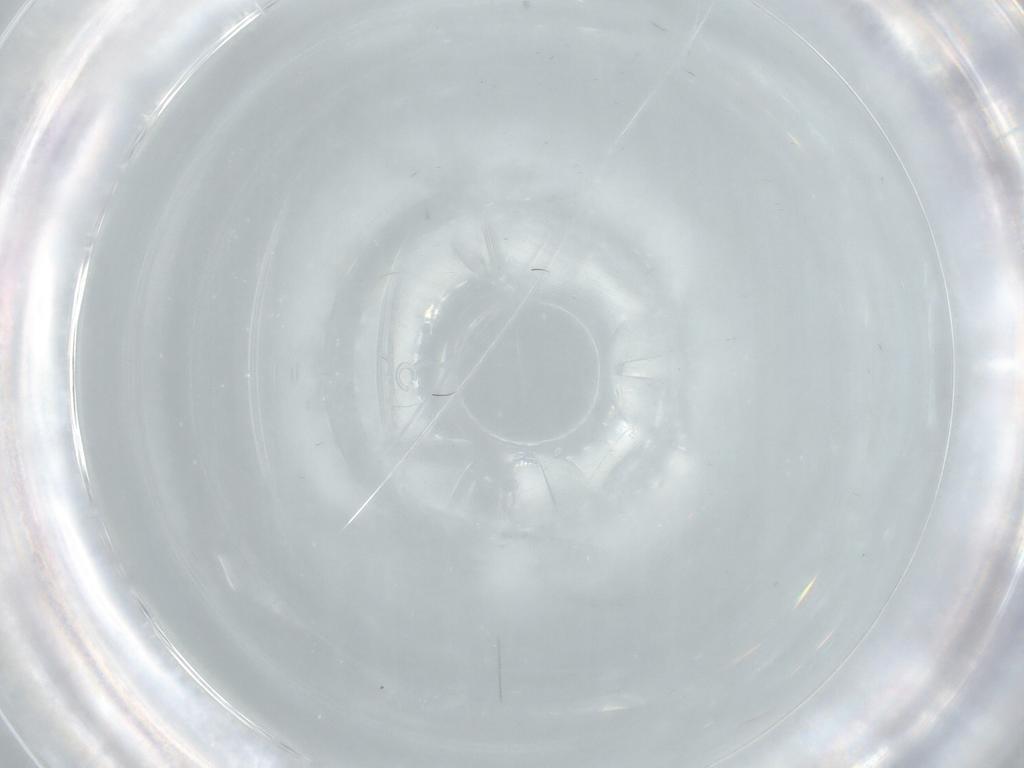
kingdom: Animalia
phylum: Arthropoda
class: Insecta
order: Diptera
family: Cecidomyiidae
